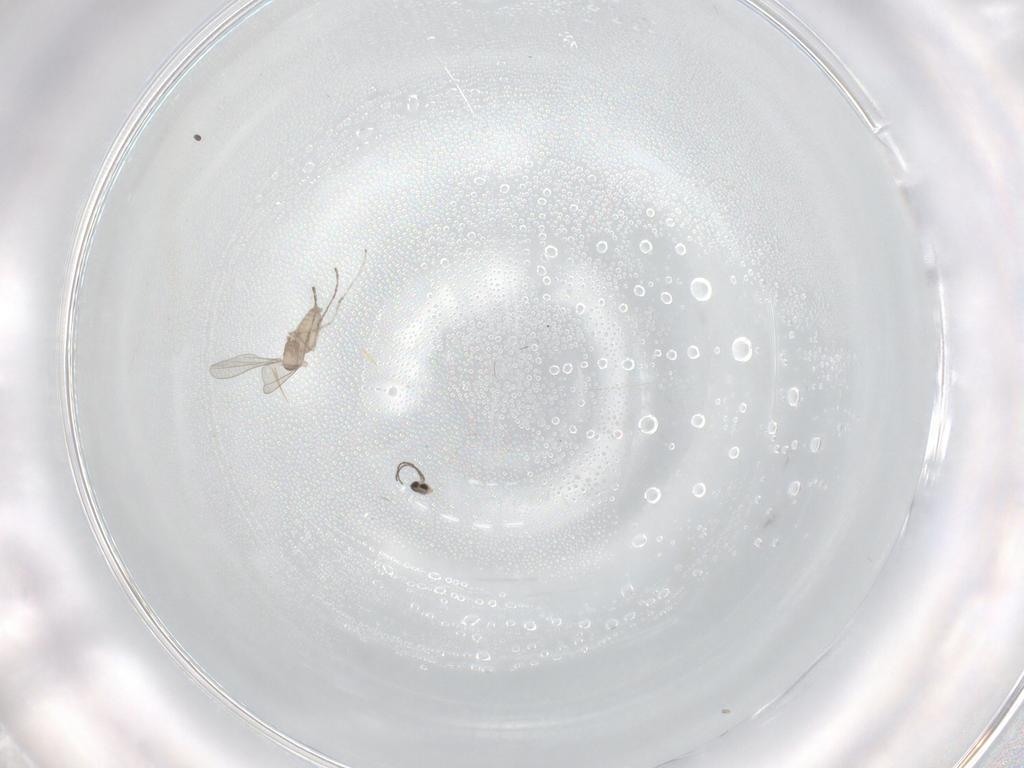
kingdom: Animalia
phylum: Arthropoda
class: Insecta
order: Diptera
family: Cecidomyiidae
